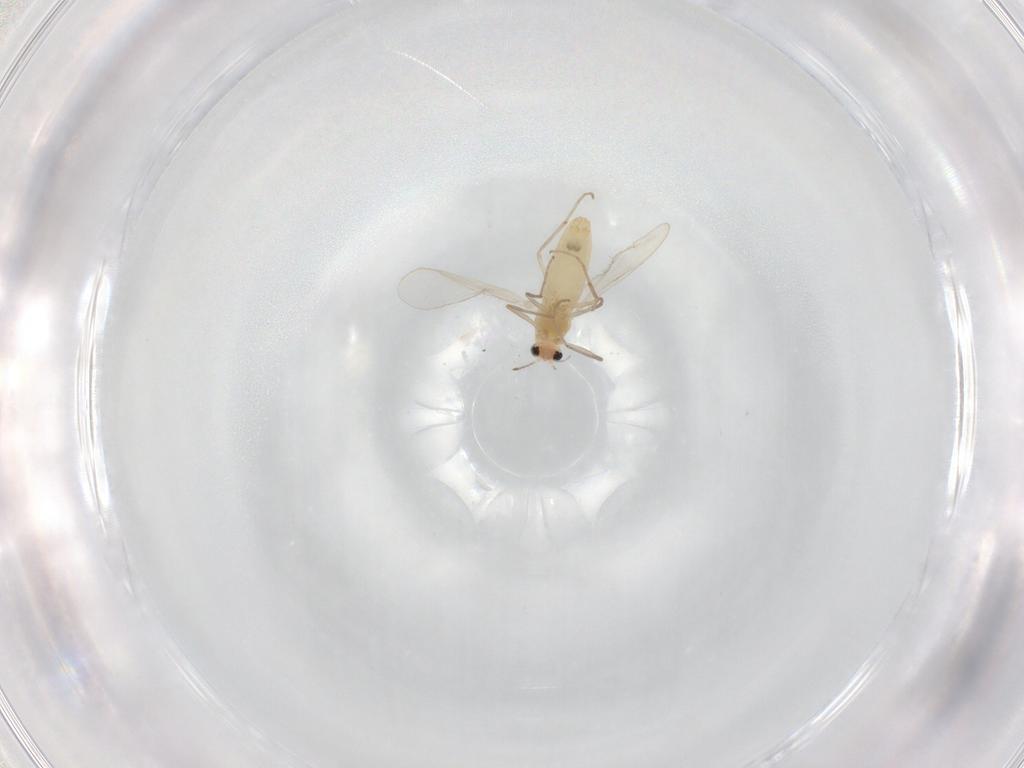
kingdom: Animalia
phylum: Arthropoda
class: Insecta
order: Diptera
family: Chironomidae
